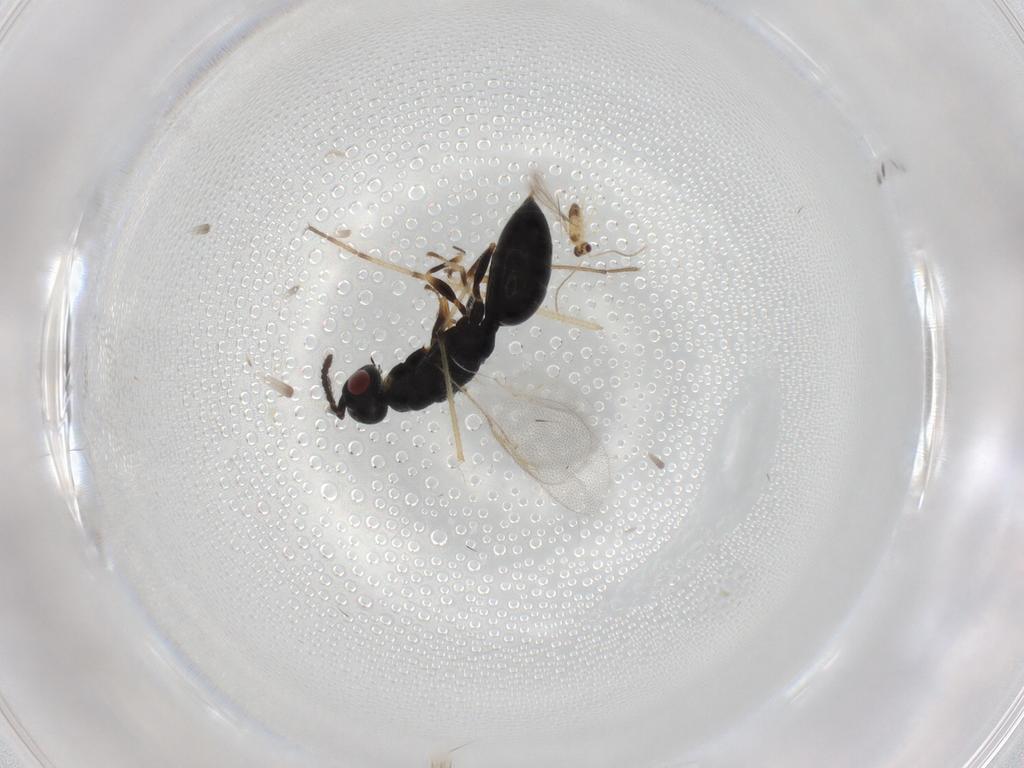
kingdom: Animalia
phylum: Arthropoda
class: Insecta
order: Hymenoptera
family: Mymaridae
